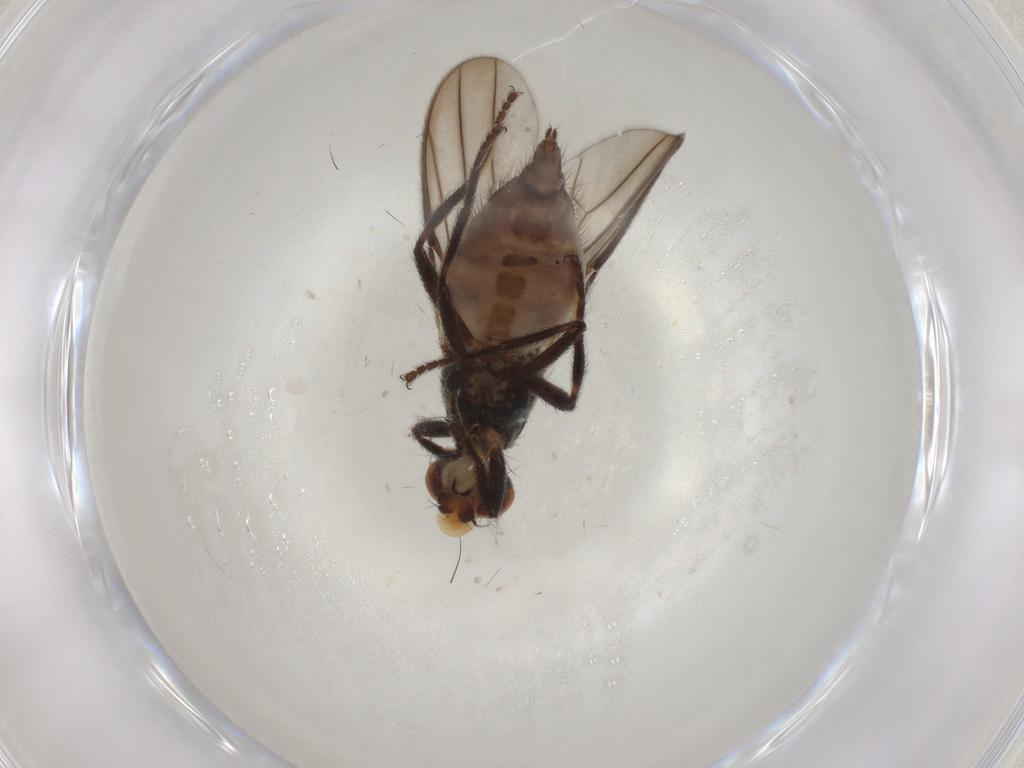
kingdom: Animalia
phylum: Arthropoda
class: Insecta
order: Diptera
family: Chloropidae
